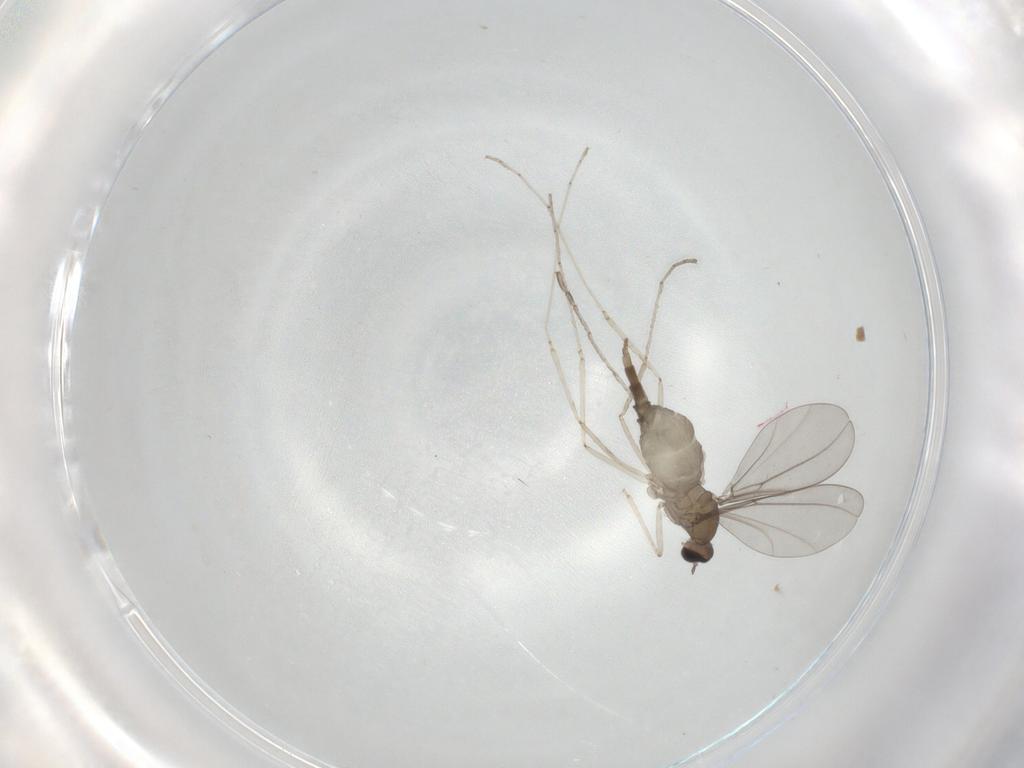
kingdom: Animalia
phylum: Arthropoda
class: Insecta
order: Diptera
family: Cecidomyiidae
